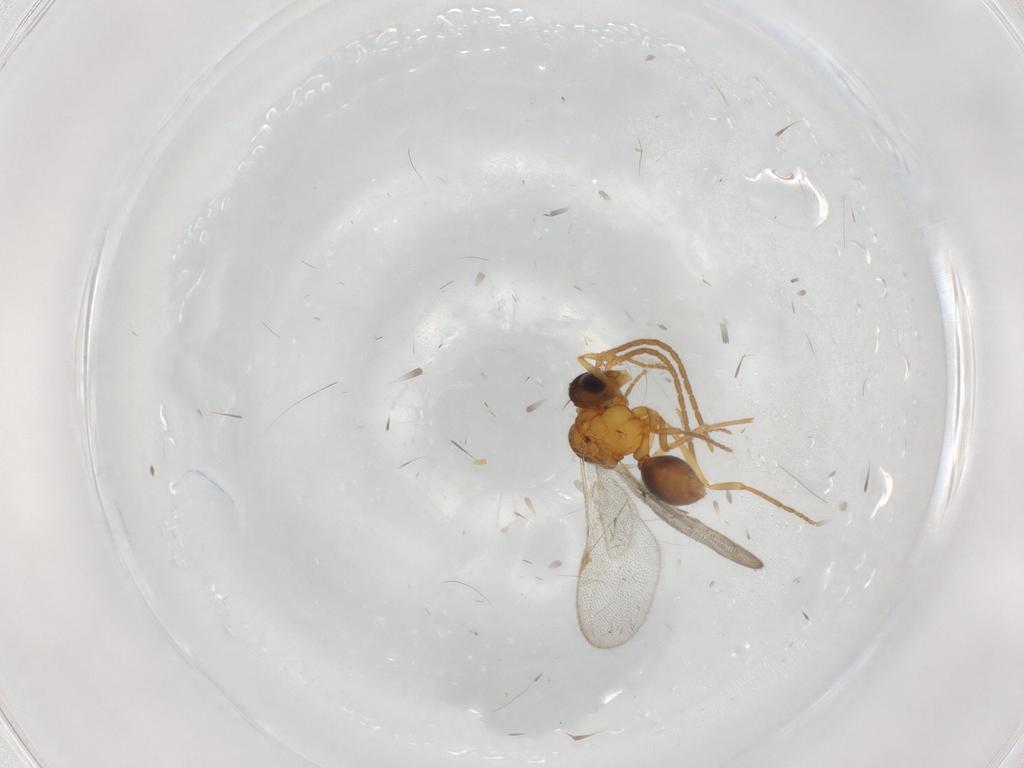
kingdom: Animalia
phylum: Arthropoda
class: Insecta
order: Hymenoptera
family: Formicidae
